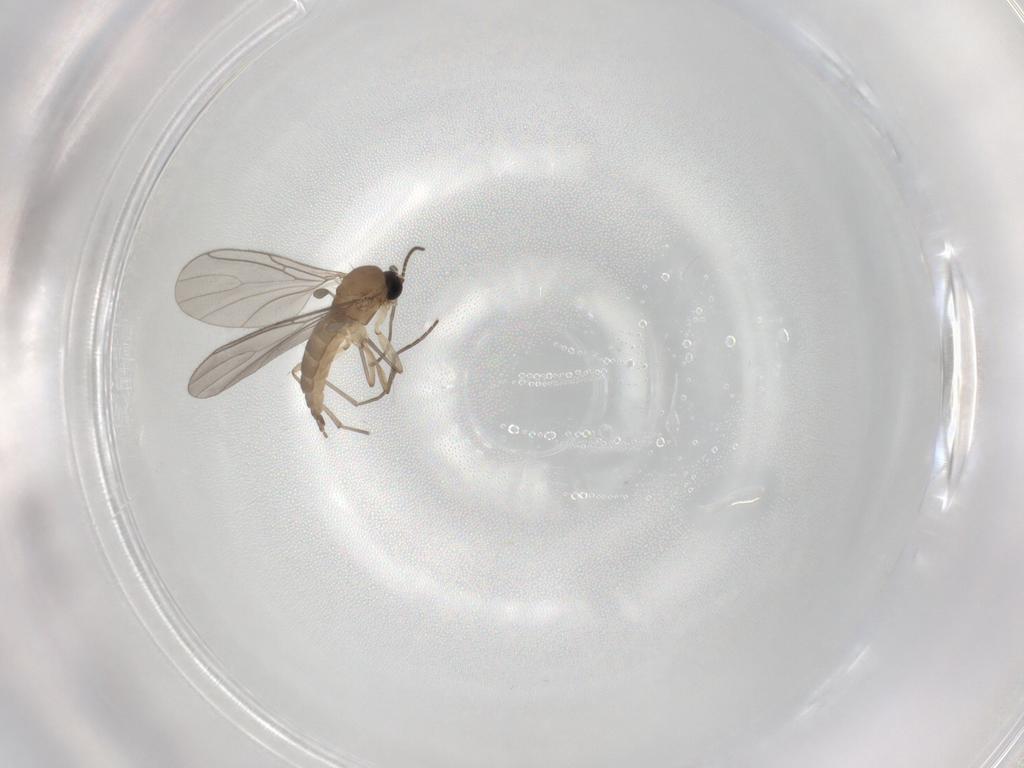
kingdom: Animalia
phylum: Arthropoda
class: Insecta
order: Diptera
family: Sciaridae
